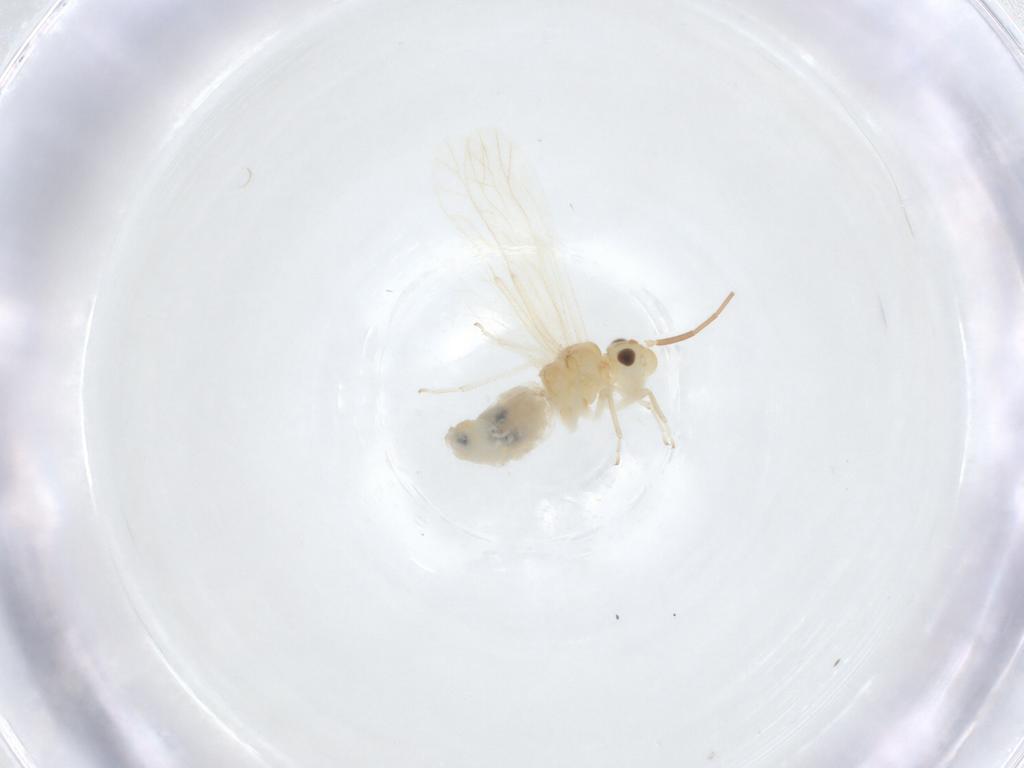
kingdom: Animalia
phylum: Arthropoda
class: Insecta
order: Psocodea
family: Caeciliusidae
